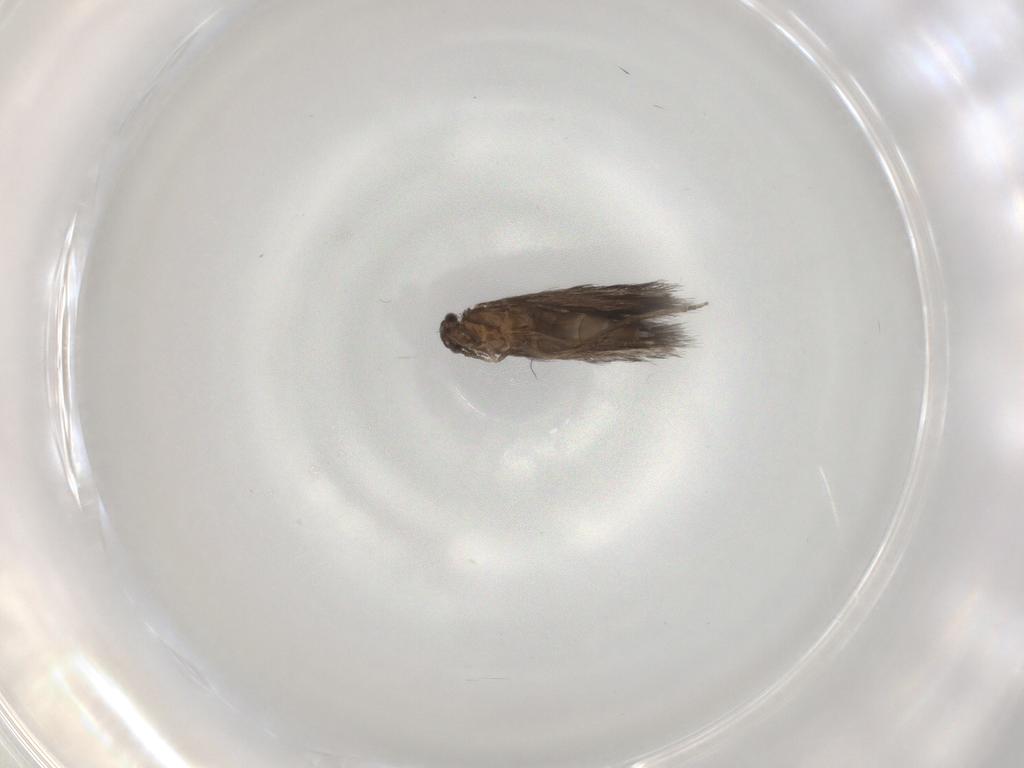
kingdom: Animalia
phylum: Arthropoda
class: Insecta
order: Trichoptera
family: Hydroptilidae
